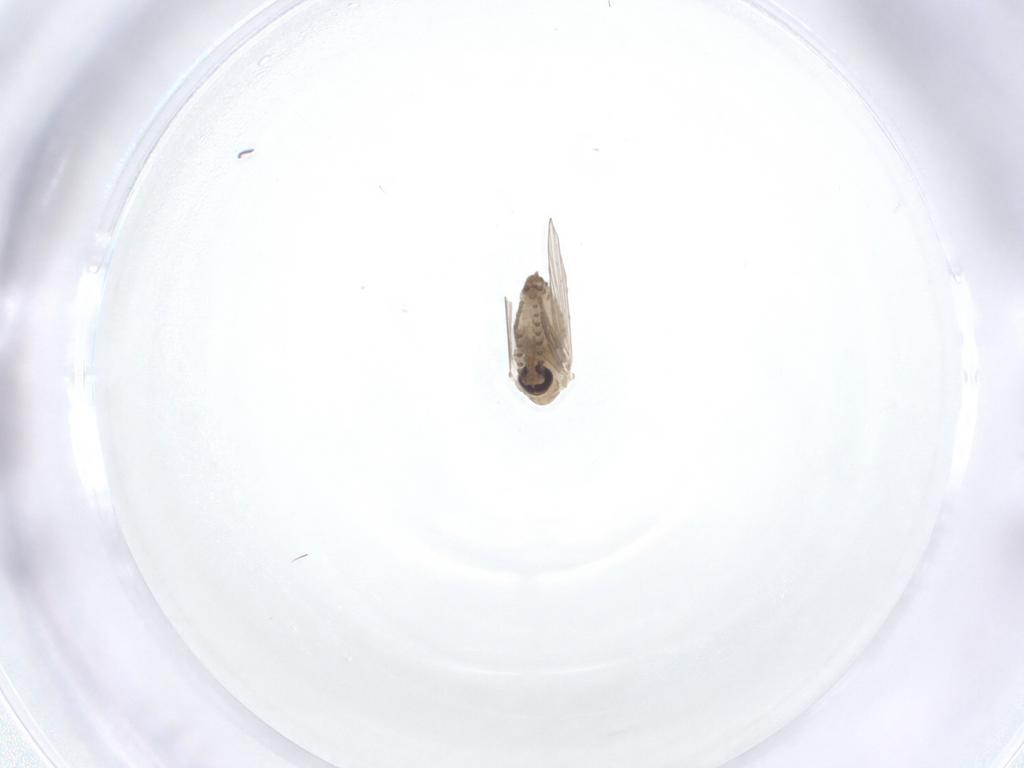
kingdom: Animalia
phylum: Arthropoda
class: Insecta
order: Diptera
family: Psychodidae
